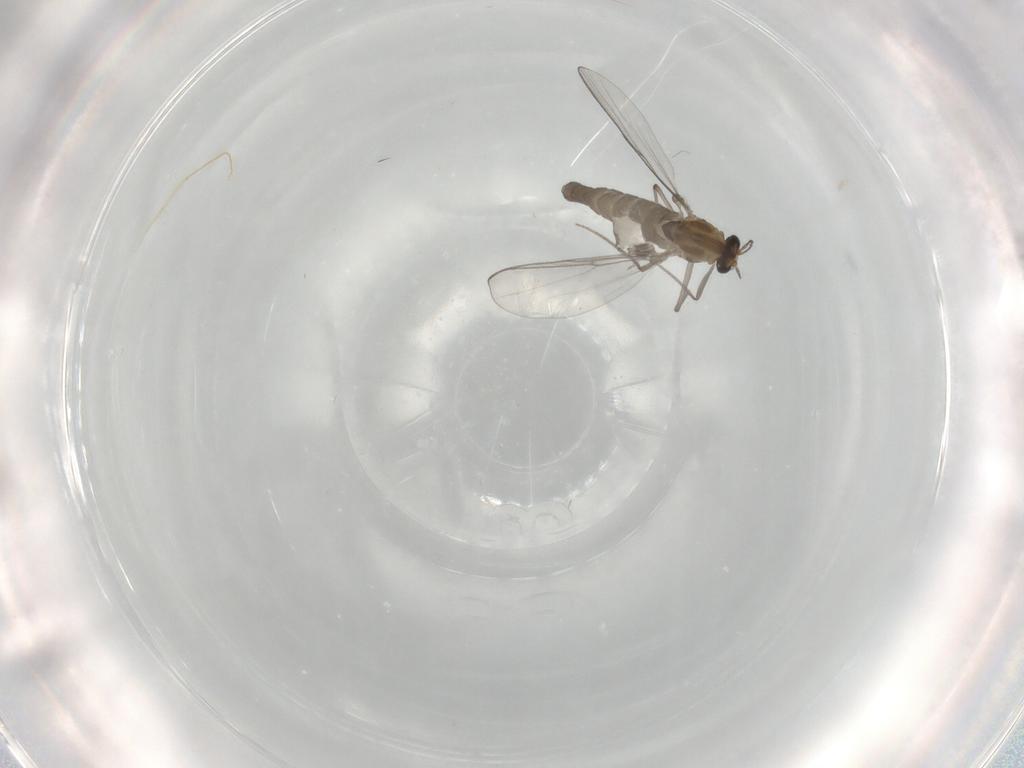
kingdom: Animalia
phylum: Arthropoda
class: Insecta
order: Diptera
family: Chironomidae
